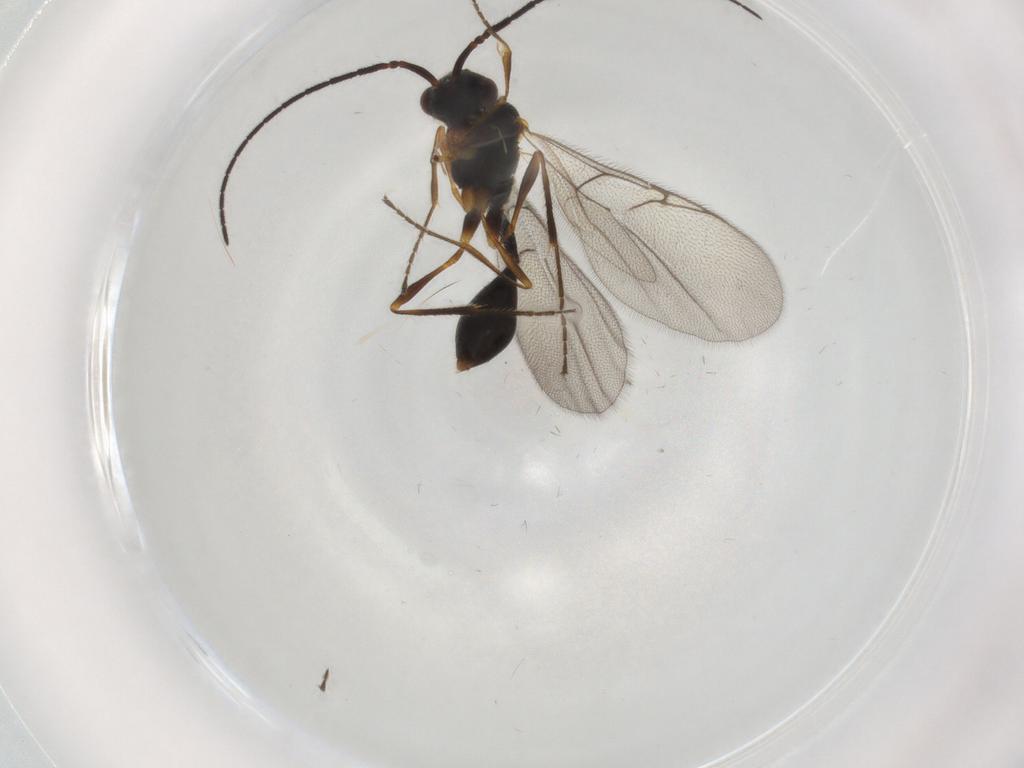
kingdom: Animalia
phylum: Arthropoda
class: Insecta
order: Hymenoptera
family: Diapriidae
